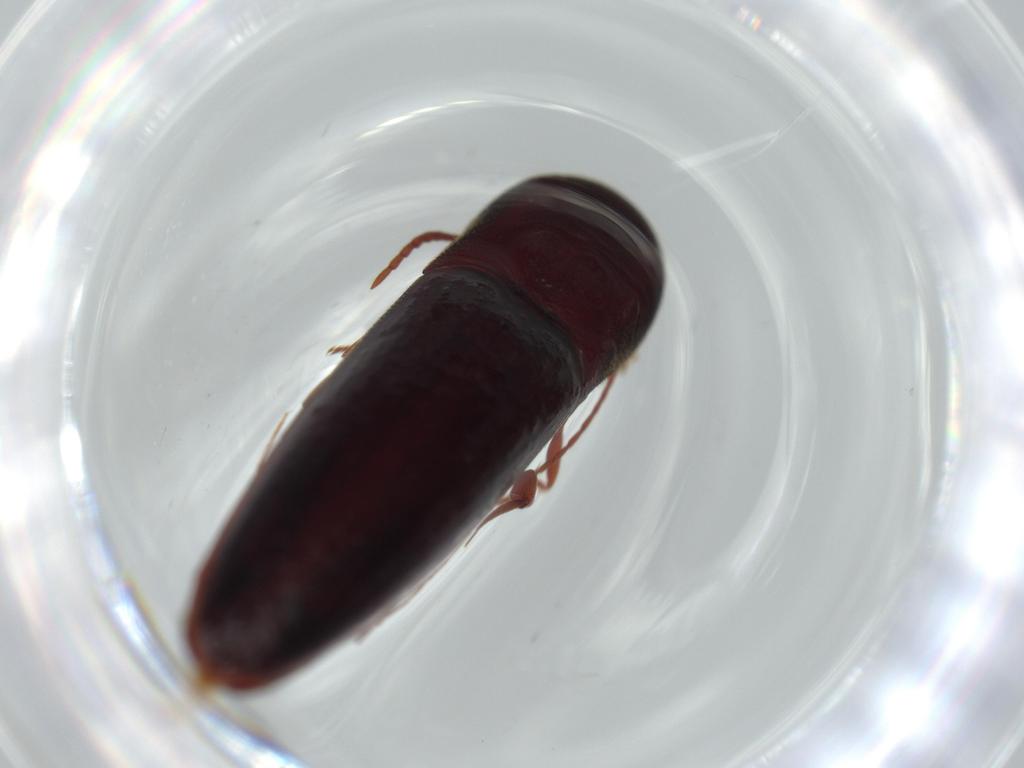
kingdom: Animalia
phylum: Arthropoda
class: Insecta
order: Coleoptera
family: Eucnemidae
